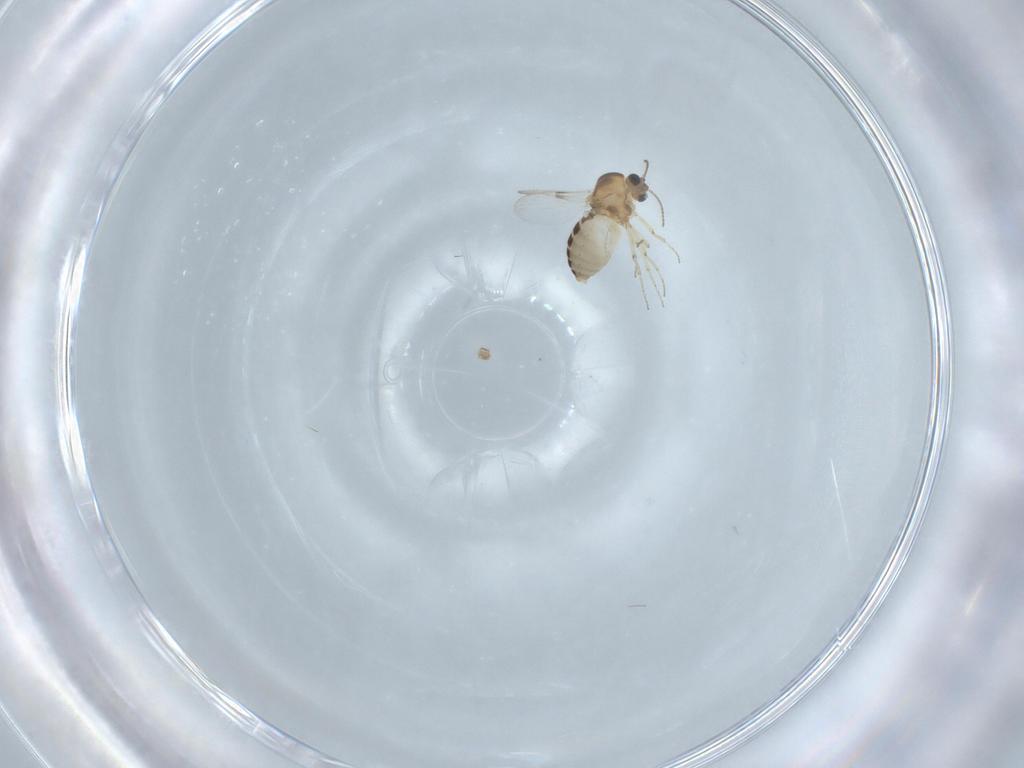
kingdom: Animalia
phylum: Arthropoda
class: Insecta
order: Diptera
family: Ceratopogonidae
